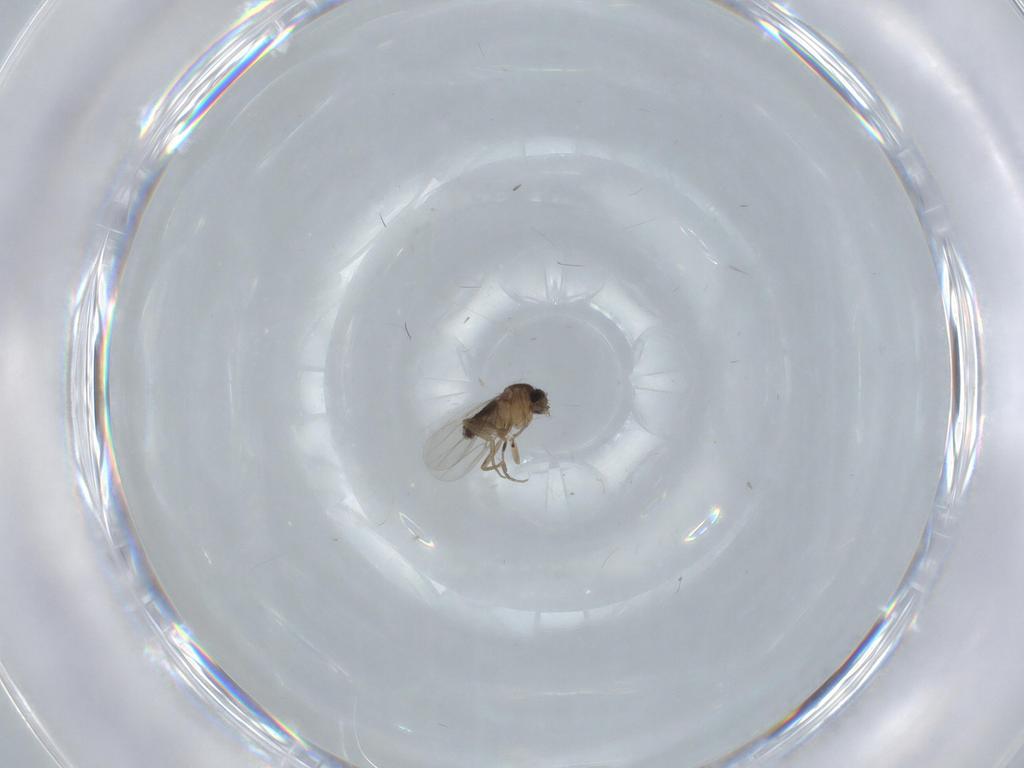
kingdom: Animalia
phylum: Arthropoda
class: Insecta
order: Diptera
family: Phoridae
